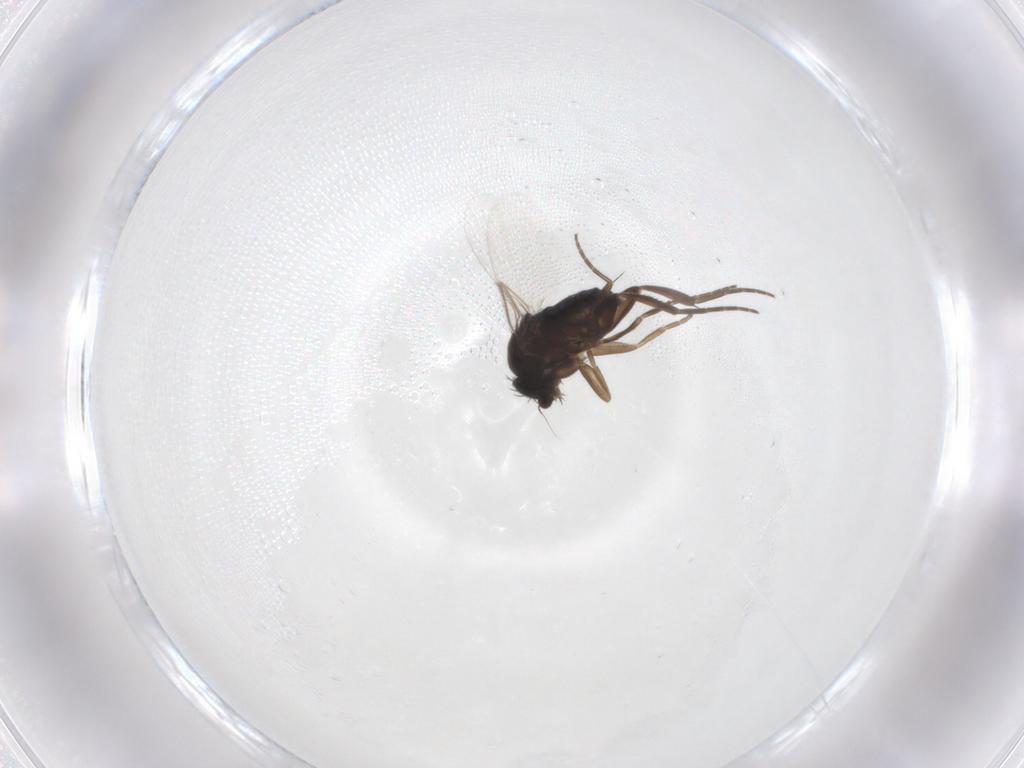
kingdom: Animalia
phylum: Arthropoda
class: Insecta
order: Diptera
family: Phoridae
